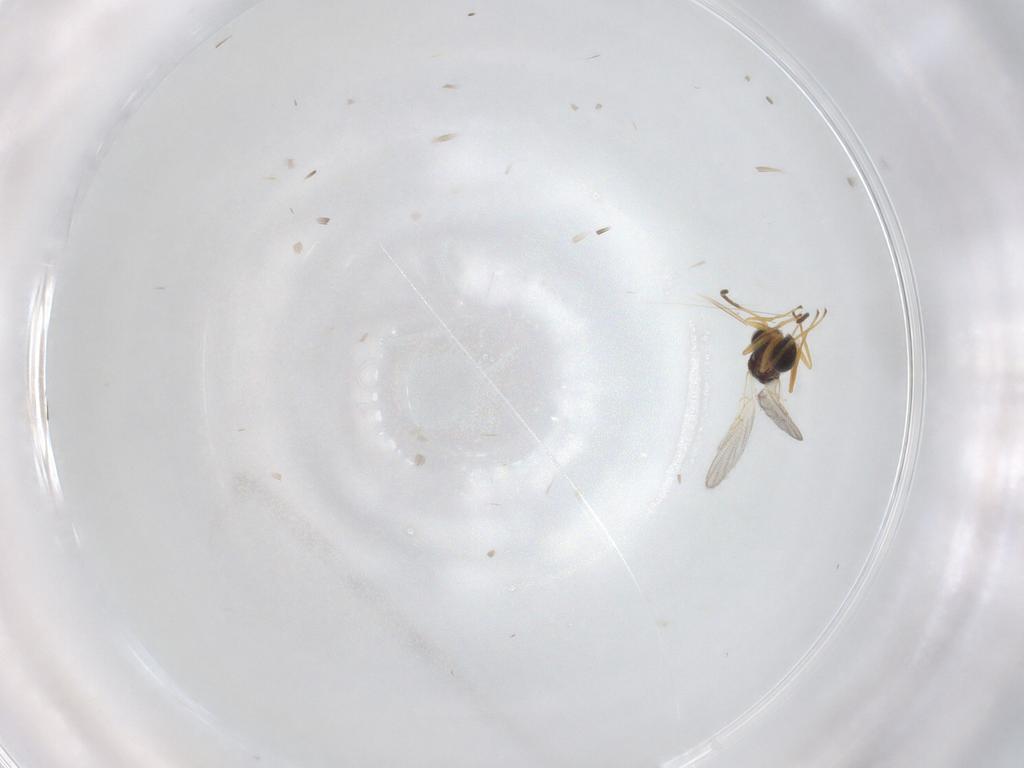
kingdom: Animalia
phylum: Arthropoda
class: Insecta
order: Hymenoptera
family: Figitidae
